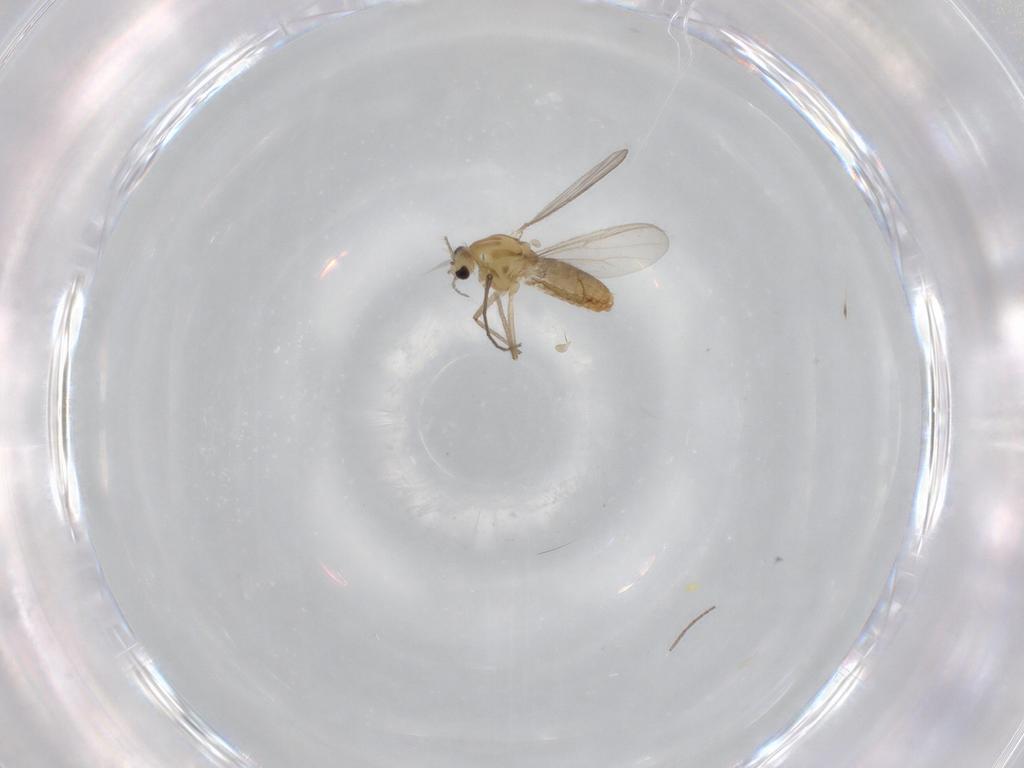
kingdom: Animalia
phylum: Arthropoda
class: Insecta
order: Diptera
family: Chironomidae
